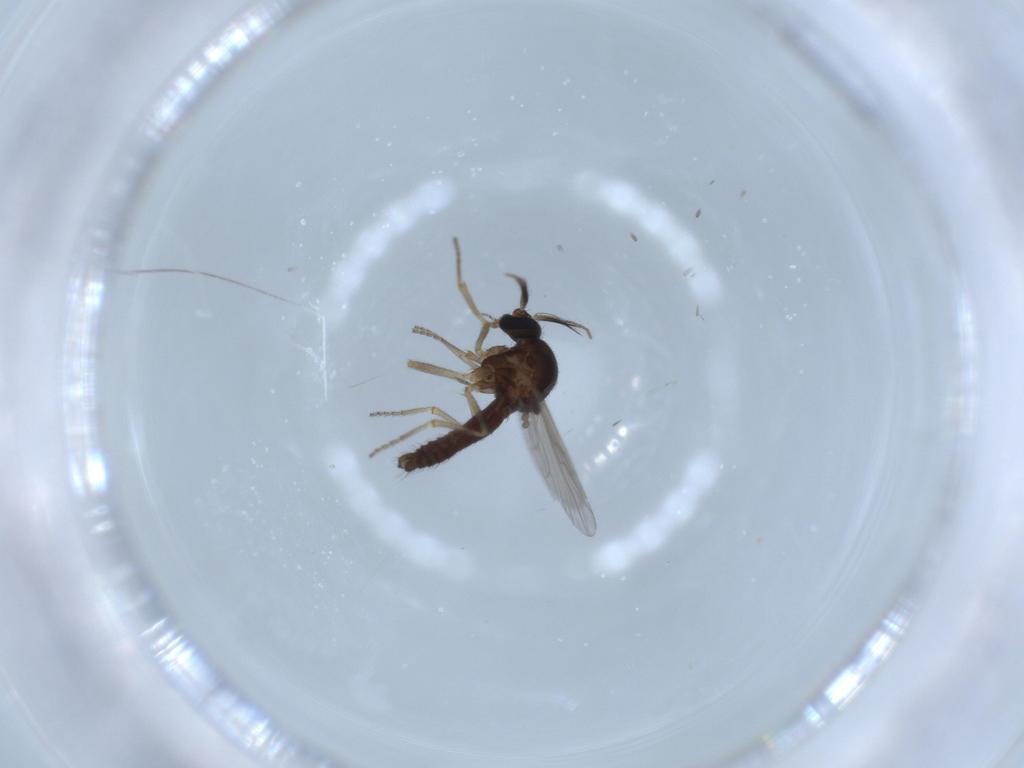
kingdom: Animalia
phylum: Arthropoda
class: Insecta
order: Diptera
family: Ceratopogonidae
